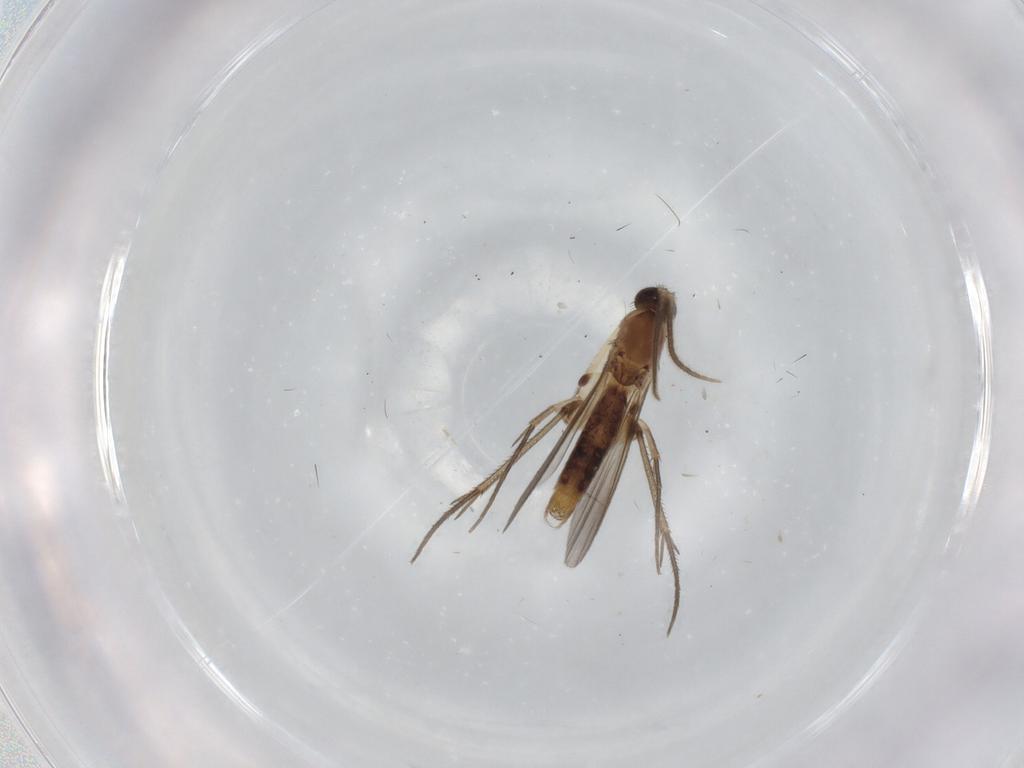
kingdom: Animalia
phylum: Arthropoda
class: Insecta
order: Diptera
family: Mycetophilidae
